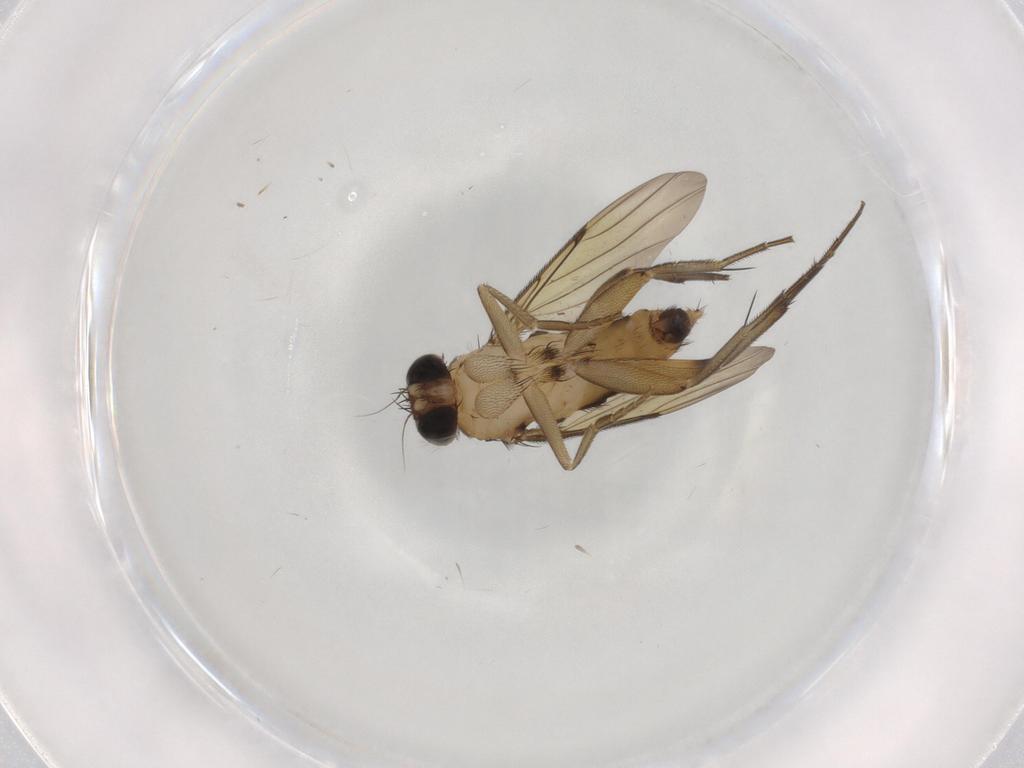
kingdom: Animalia
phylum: Arthropoda
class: Insecta
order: Diptera
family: Phoridae
